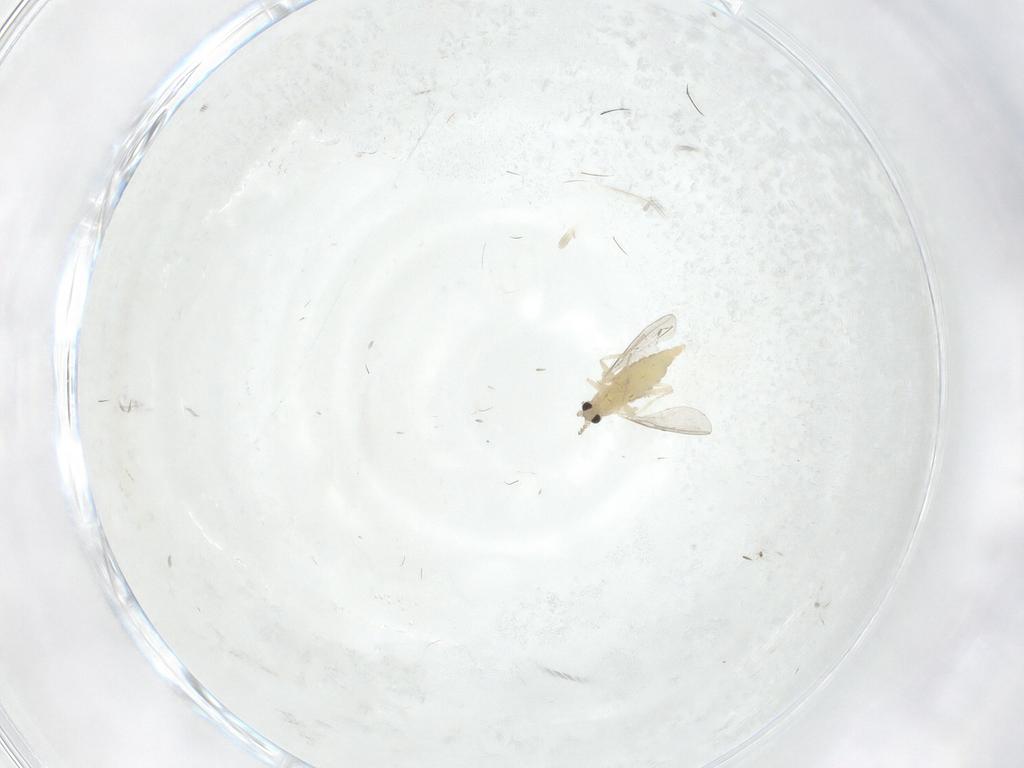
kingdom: Animalia
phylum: Arthropoda
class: Insecta
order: Diptera
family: Cecidomyiidae
